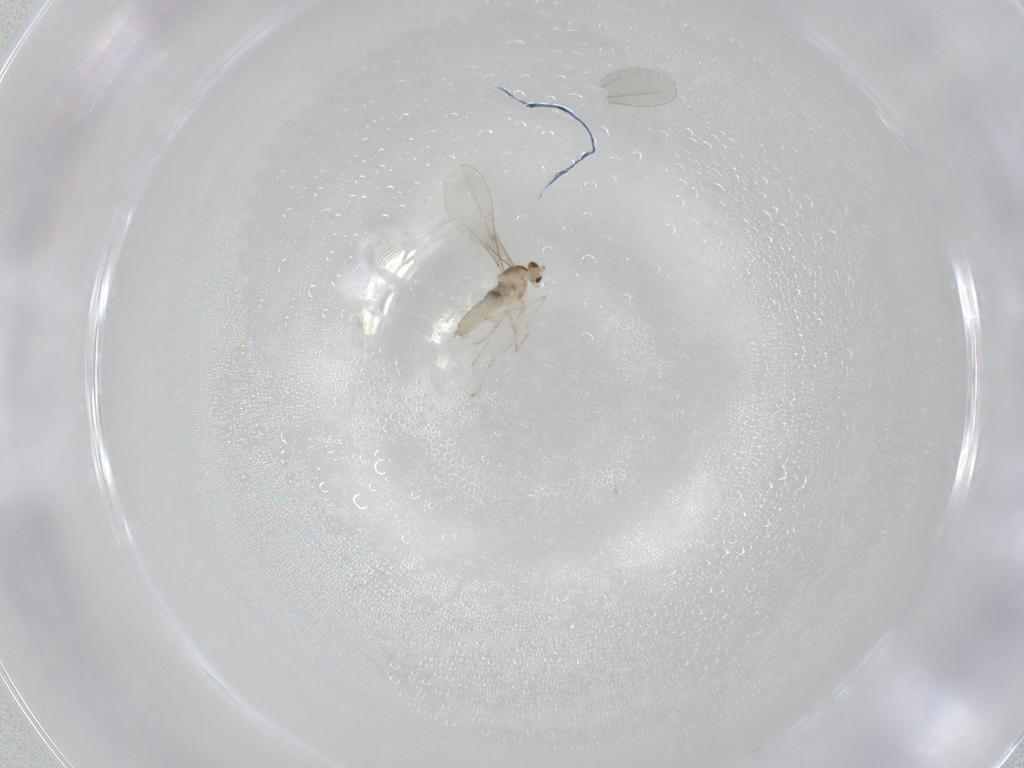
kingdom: Animalia
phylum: Arthropoda
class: Insecta
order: Diptera
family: Cecidomyiidae
